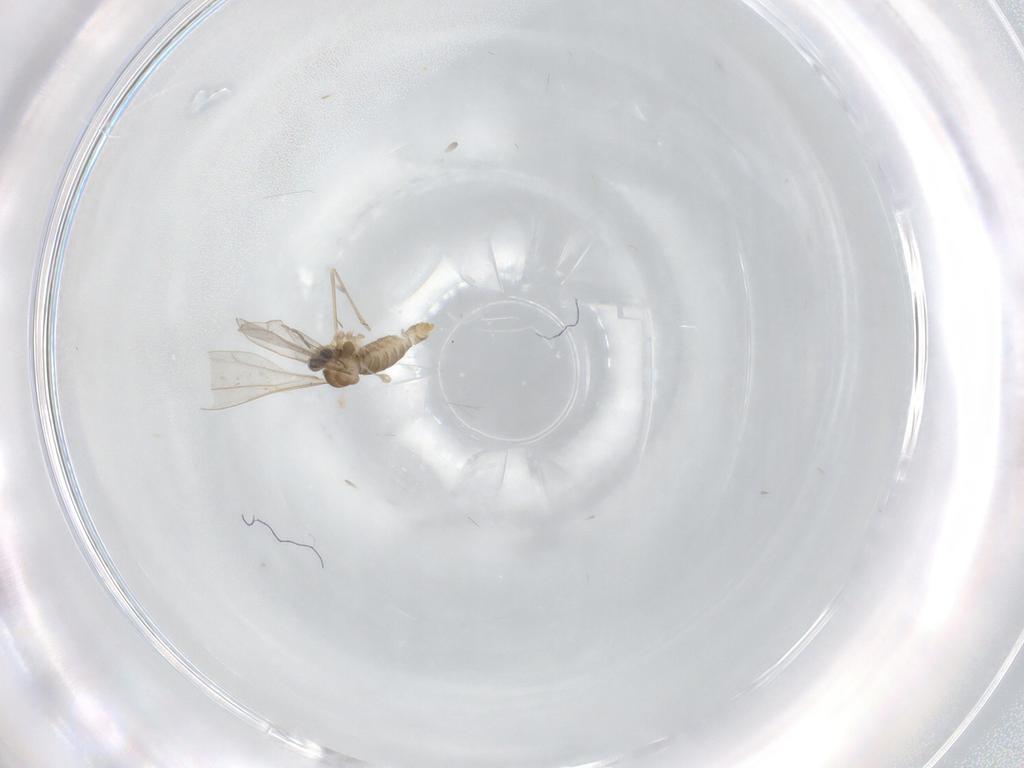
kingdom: Animalia
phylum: Arthropoda
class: Insecta
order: Diptera
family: Cecidomyiidae
